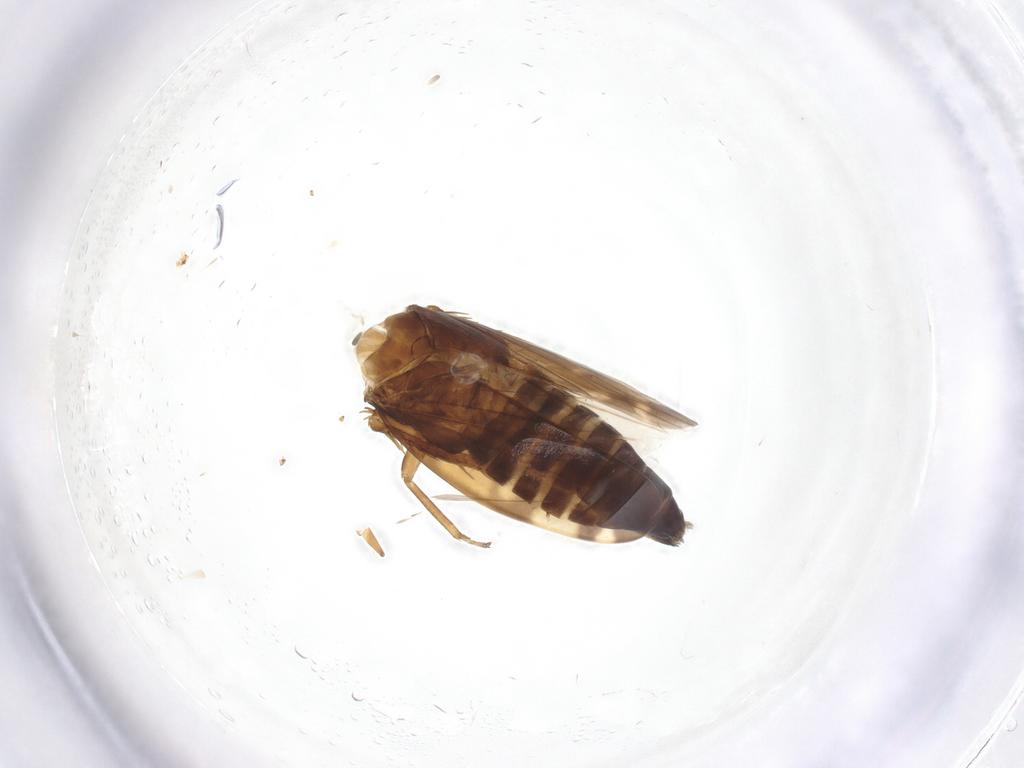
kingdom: Animalia
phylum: Arthropoda
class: Insecta
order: Hemiptera
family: Cicadellidae
